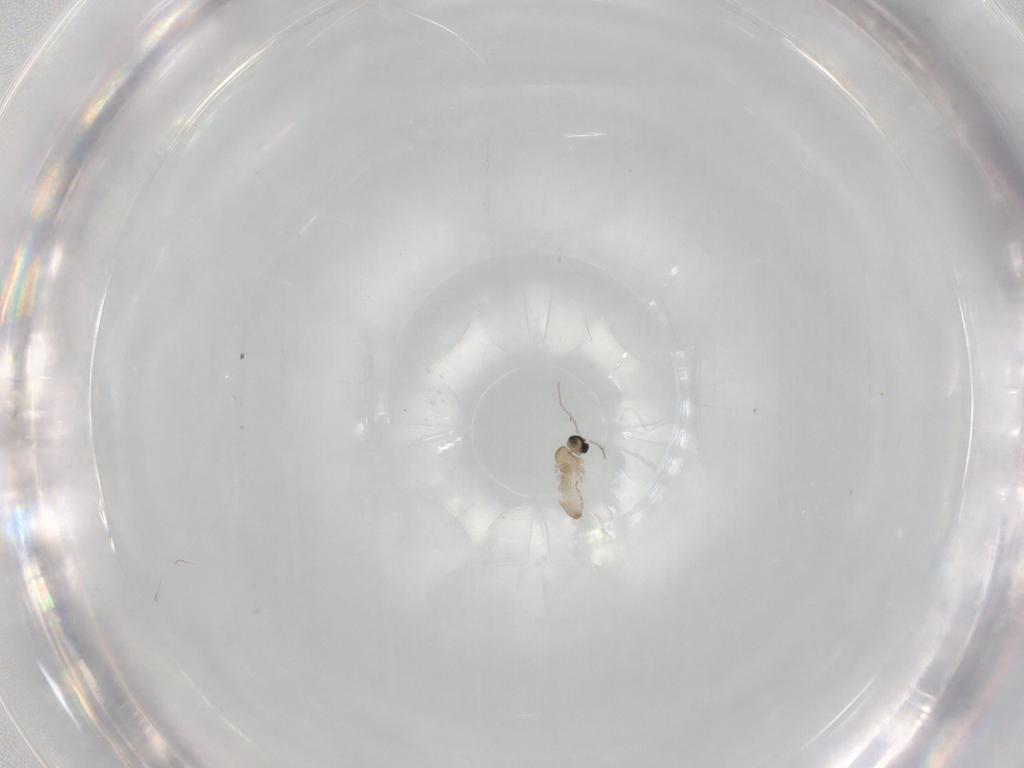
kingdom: Animalia
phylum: Arthropoda
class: Insecta
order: Diptera
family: Cecidomyiidae
